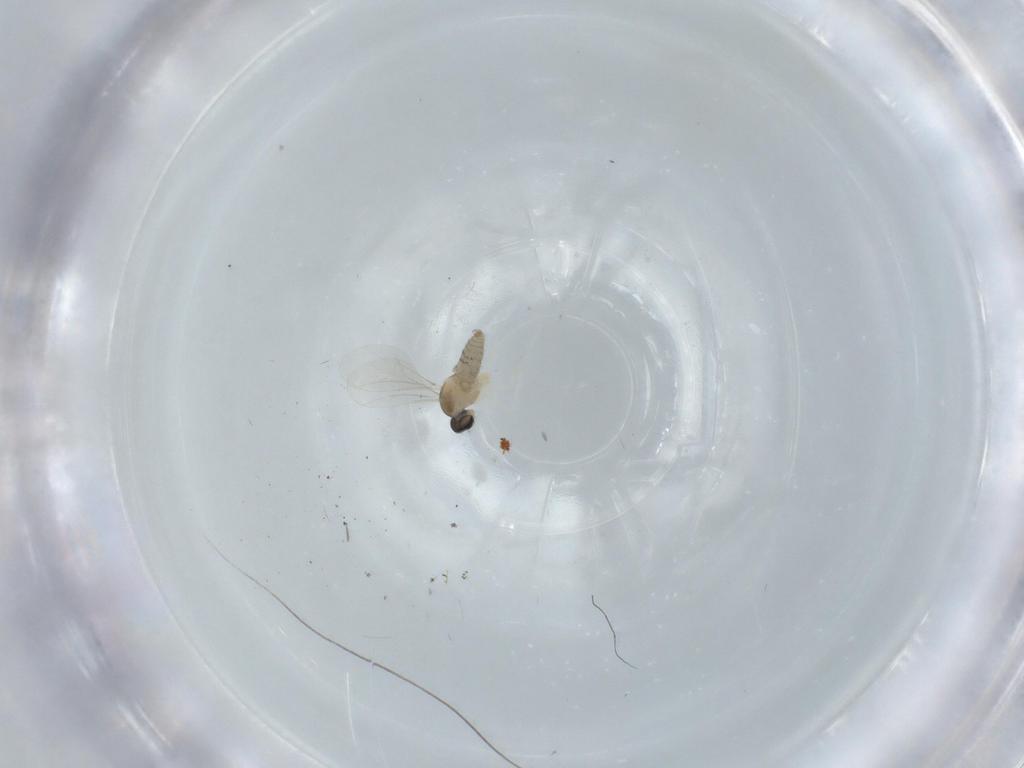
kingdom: Animalia
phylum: Arthropoda
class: Insecta
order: Diptera
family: Cecidomyiidae
